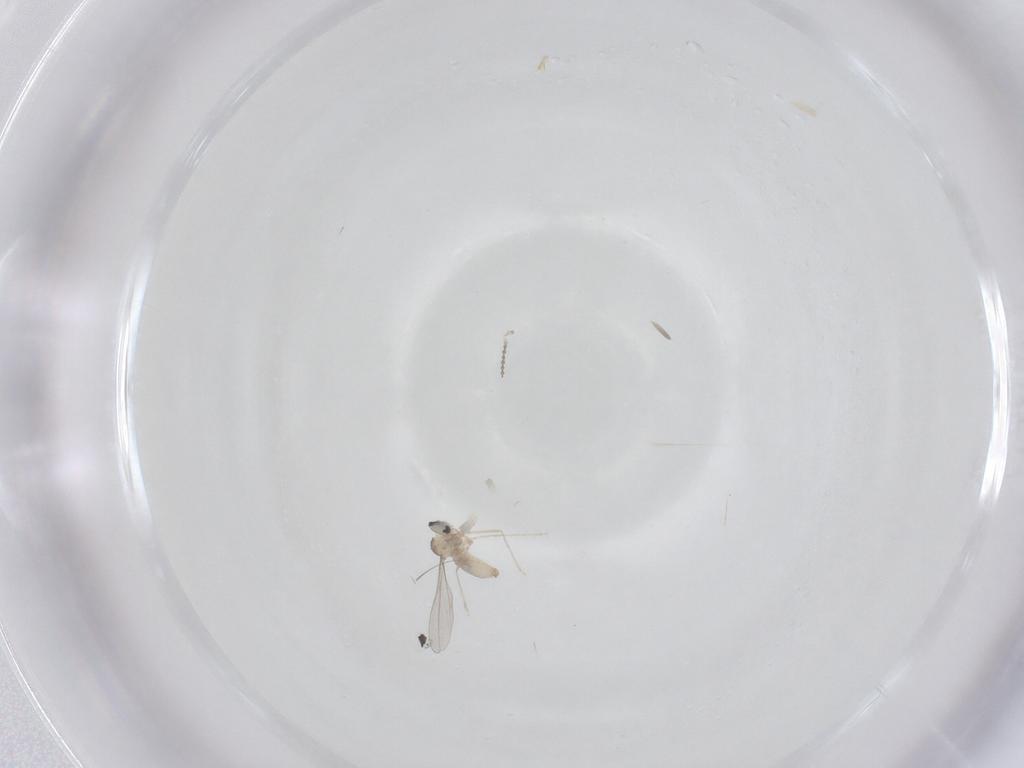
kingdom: Animalia
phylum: Arthropoda
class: Insecta
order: Diptera
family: Cecidomyiidae
